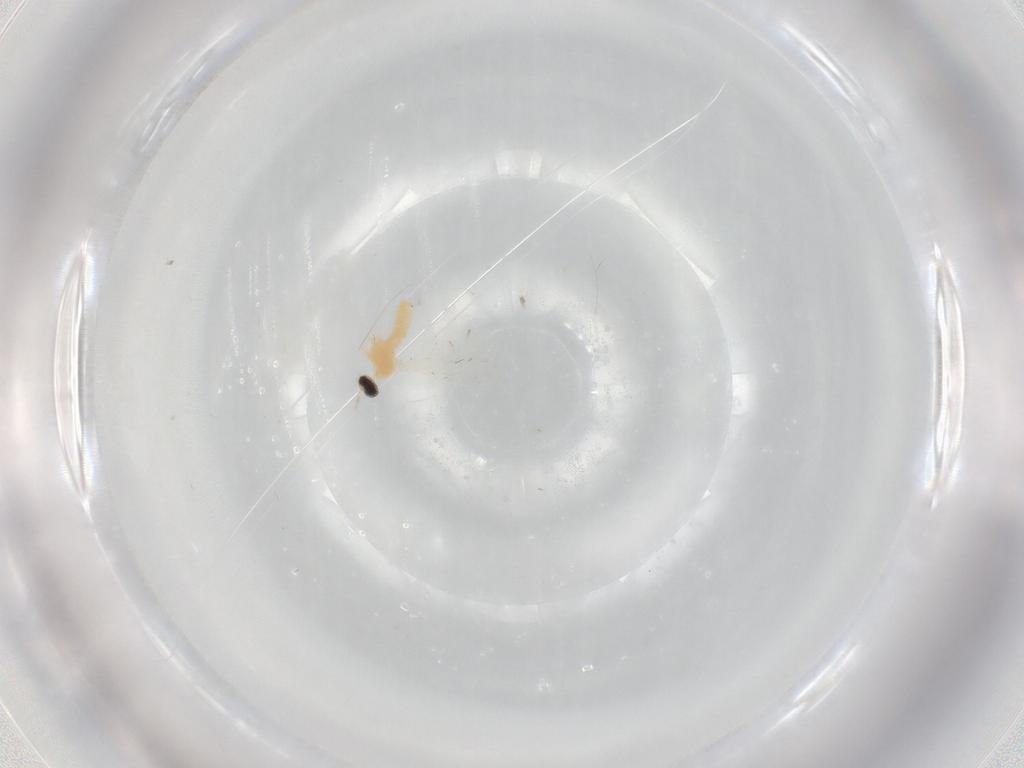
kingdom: Animalia
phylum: Arthropoda
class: Insecta
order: Diptera
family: Cecidomyiidae
